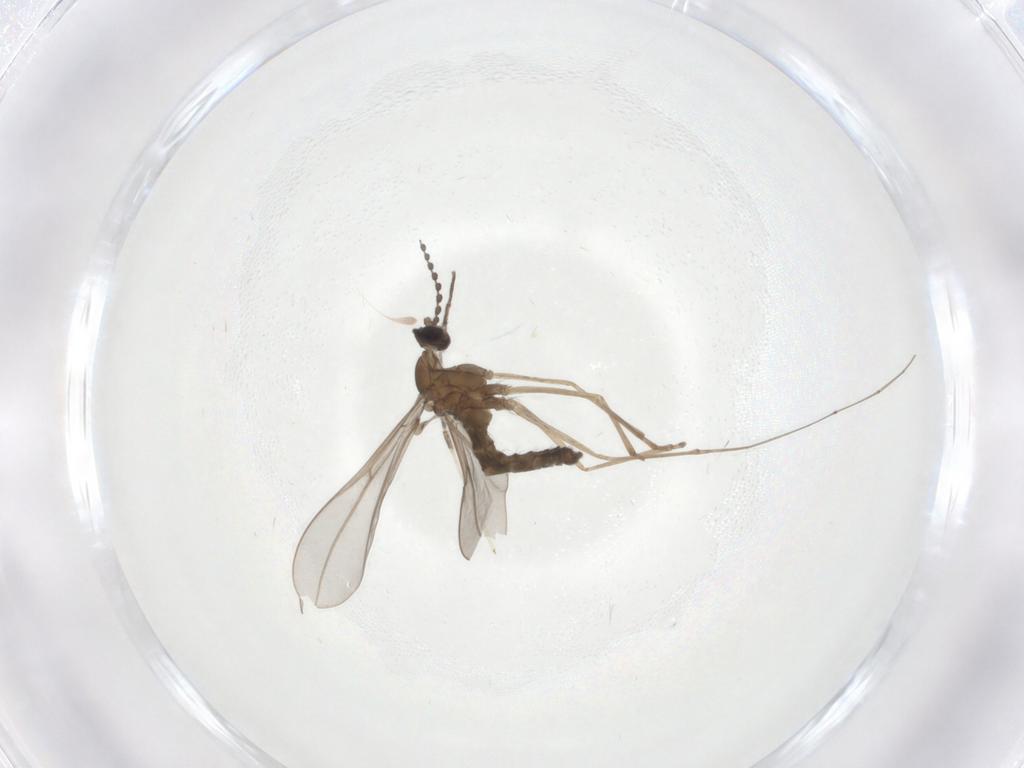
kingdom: Animalia
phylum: Arthropoda
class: Insecta
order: Diptera
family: Cecidomyiidae
